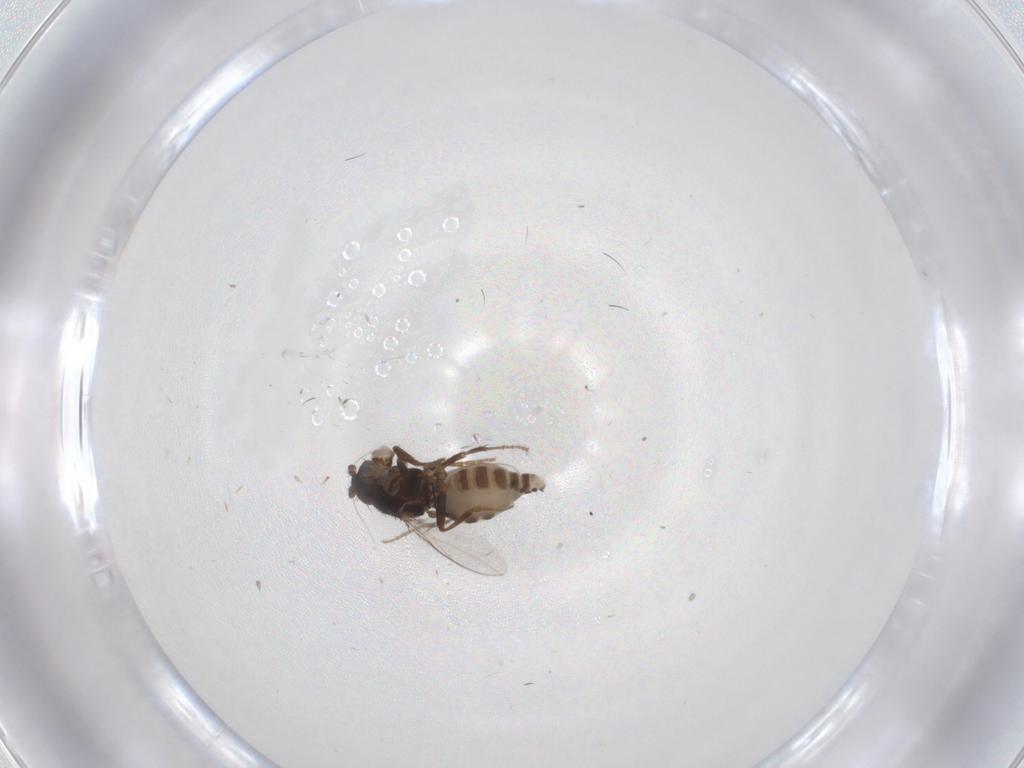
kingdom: Animalia
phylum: Arthropoda
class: Insecta
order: Diptera
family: Sphaeroceridae
